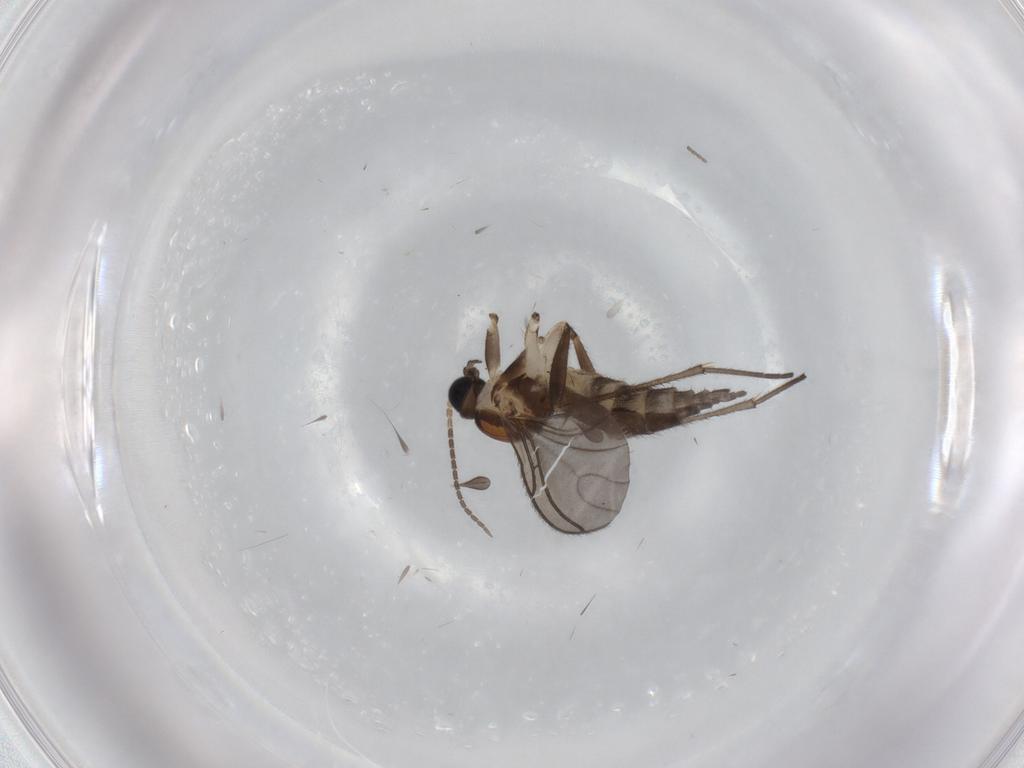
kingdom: Animalia
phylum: Arthropoda
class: Insecta
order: Diptera
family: Sciaridae
